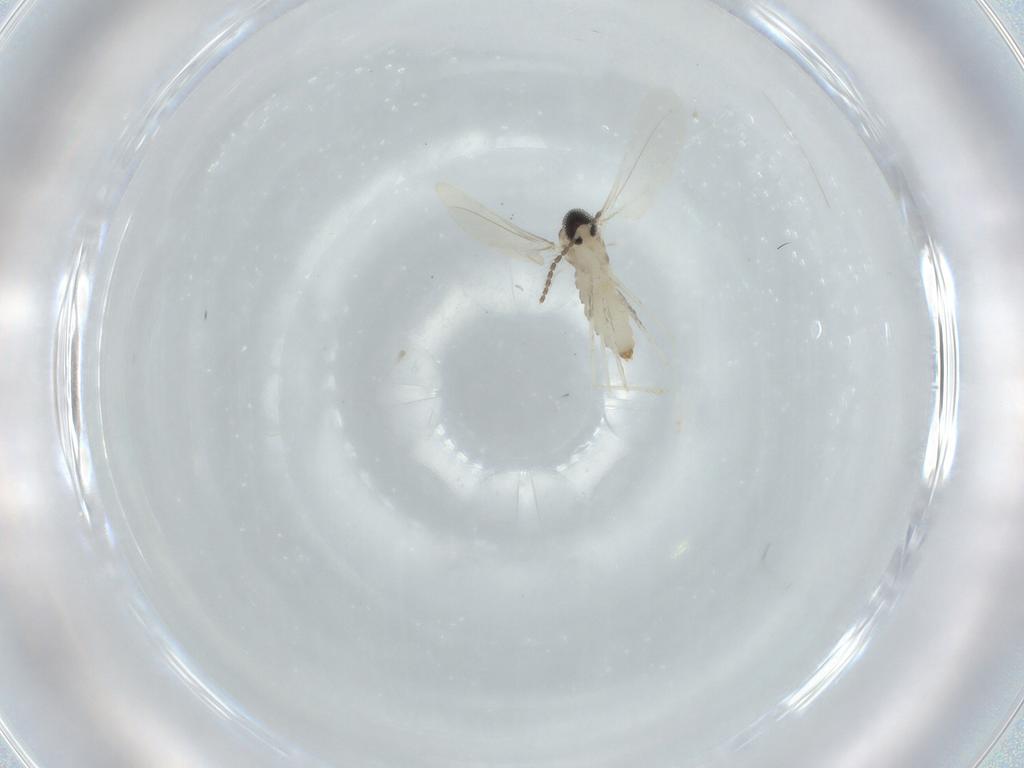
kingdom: Animalia
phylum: Arthropoda
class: Insecta
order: Diptera
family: Cecidomyiidae
